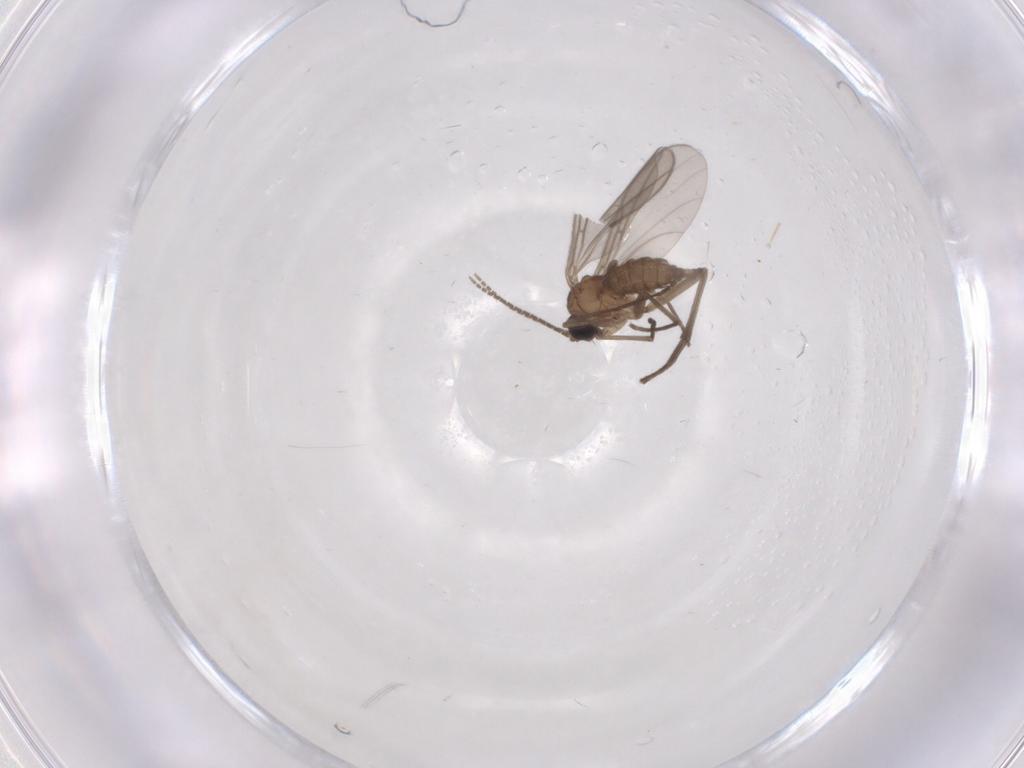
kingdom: Animalia
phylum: Arthropoda
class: Insecta
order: Diptera
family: Sciaridae
